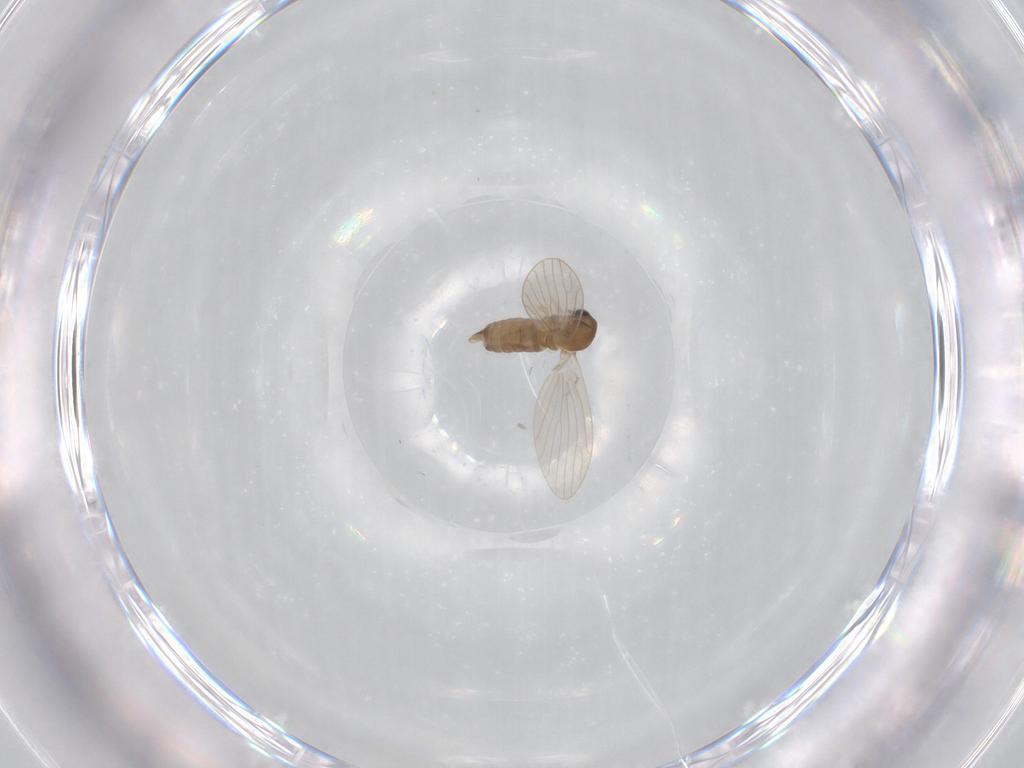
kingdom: Animalia
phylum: Arthropoda
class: Insecta
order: Diptera
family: Psychodidae
